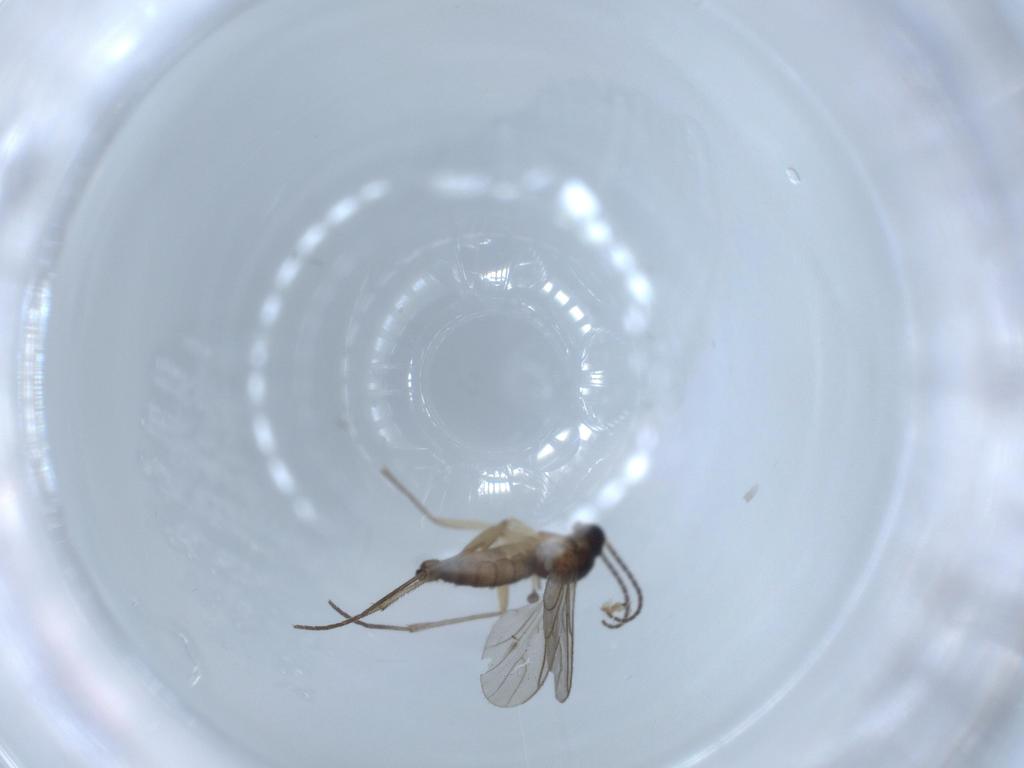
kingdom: Animalia
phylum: Arthropoda
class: Insecta
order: Diptera
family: Sciaridae
